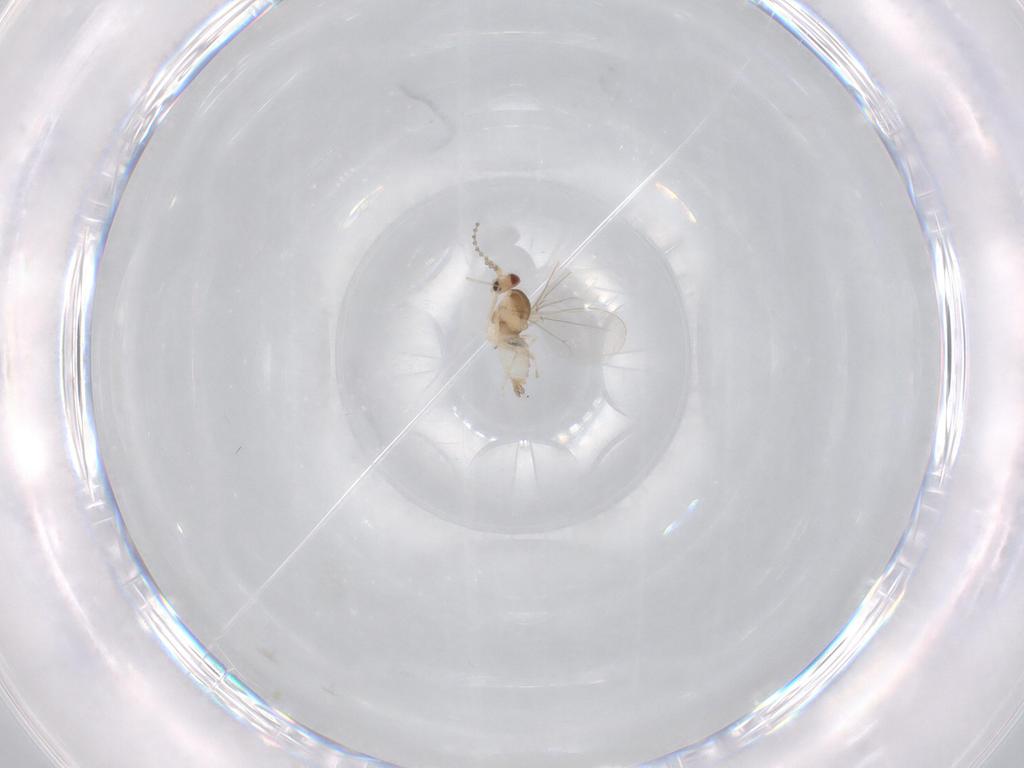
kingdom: Animalia
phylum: Arthropoda
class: Insecta
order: Diptera
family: Cecidomyiidae
